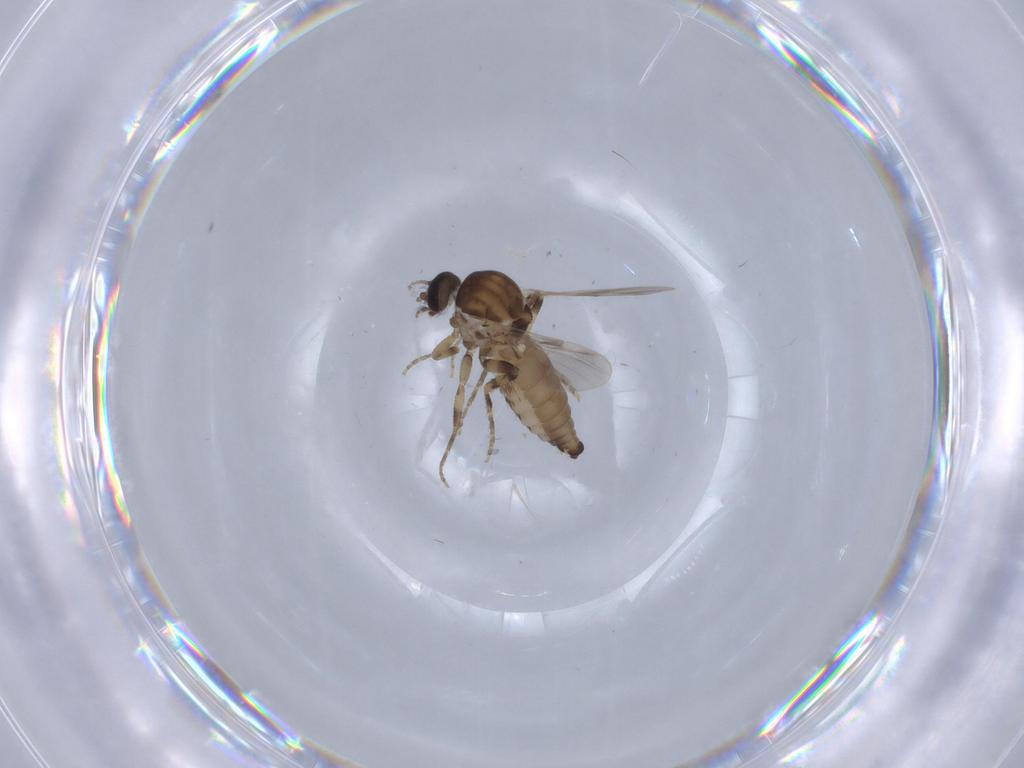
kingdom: Animalia
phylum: Arthropoda
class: Insecta
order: Diptera
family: Ceratopogonidae
